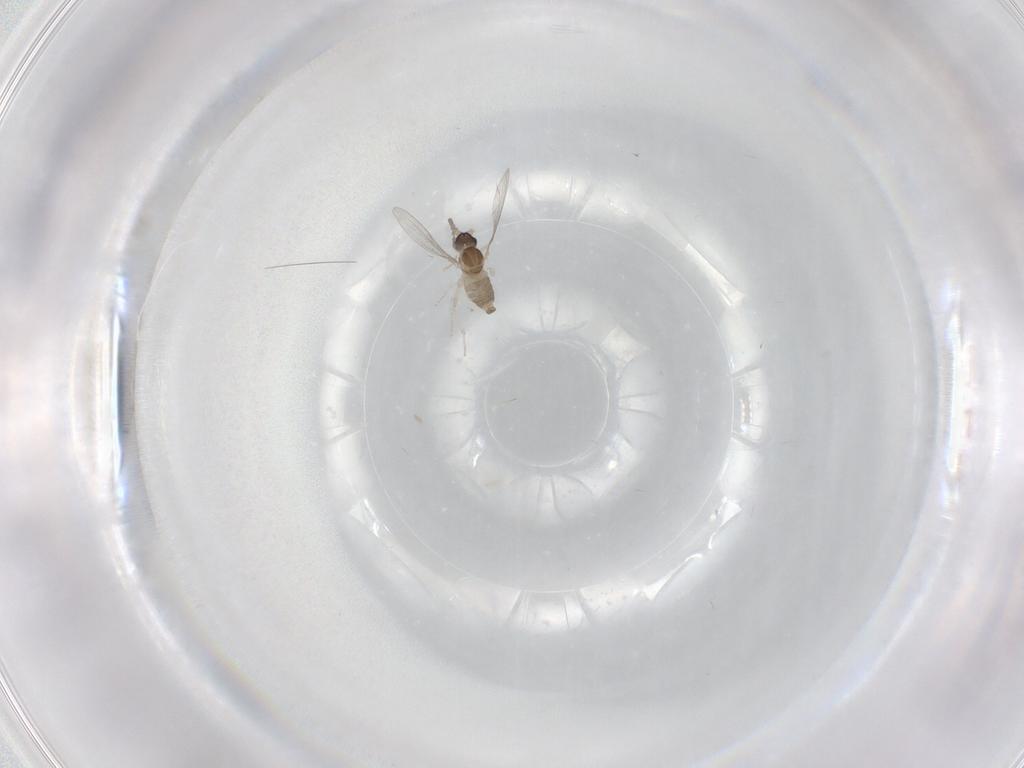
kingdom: Animalia
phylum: Arthropoda
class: Insecta
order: Diptera
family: Cecidomyiidae
